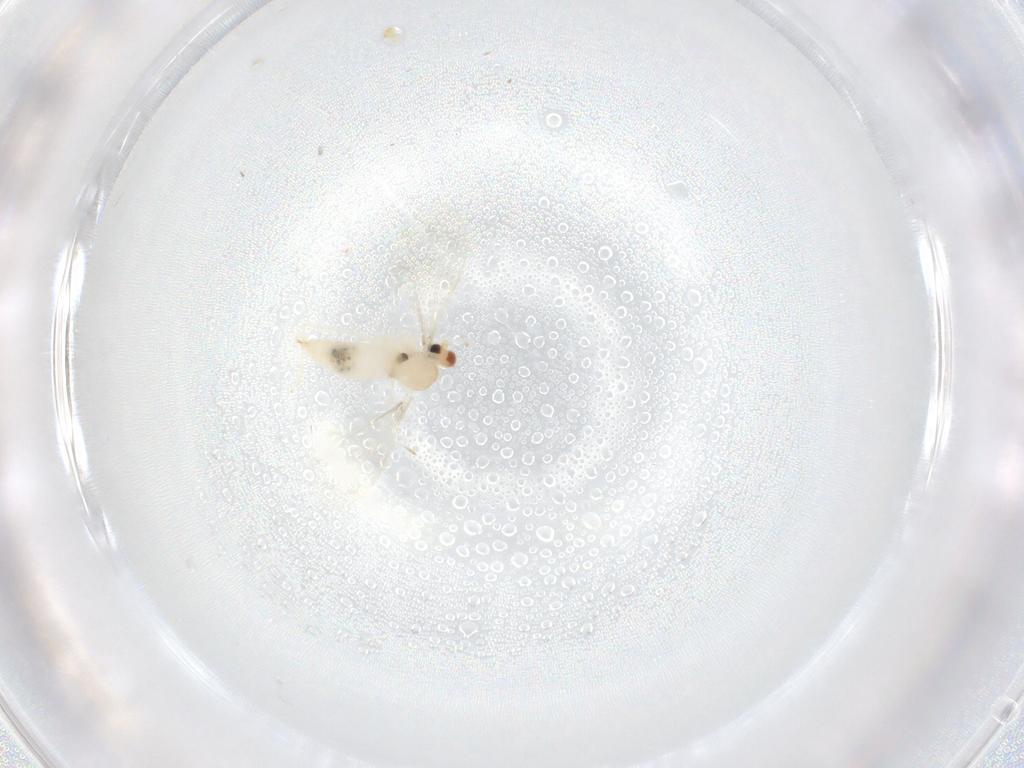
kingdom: Animalia
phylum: Arthropoda
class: Insecta
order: Diptera
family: Cecidomyiidae
